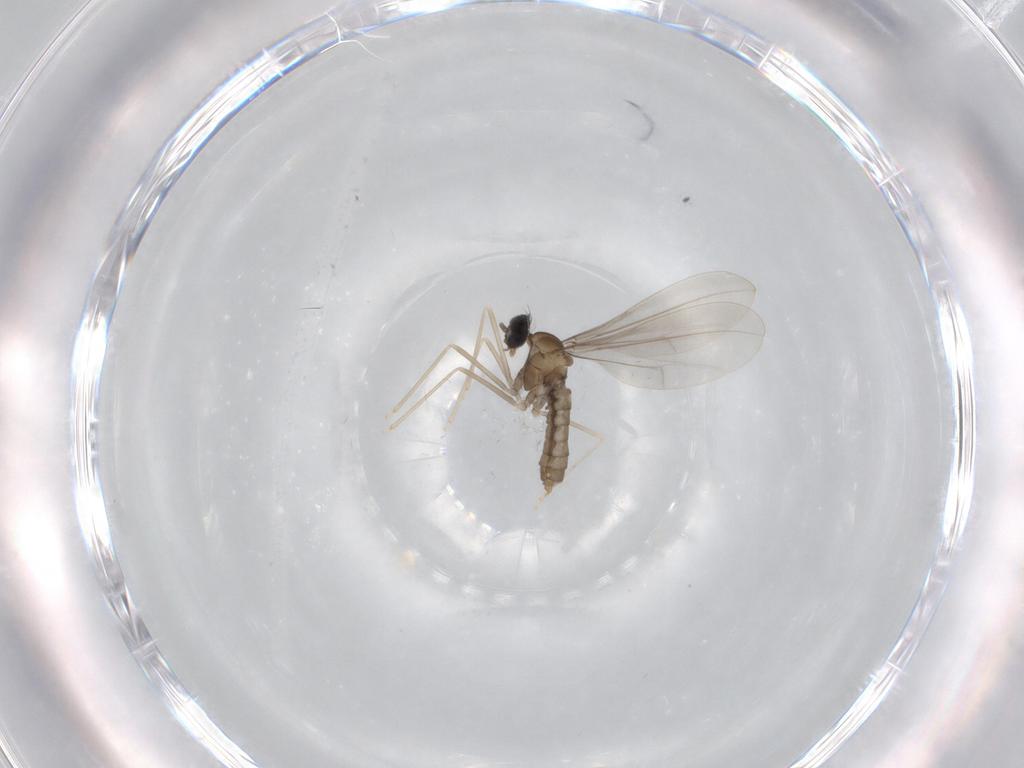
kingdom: Animalia
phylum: Arthropoda
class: Insecta
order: Diptera
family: Cecidomyiidae
